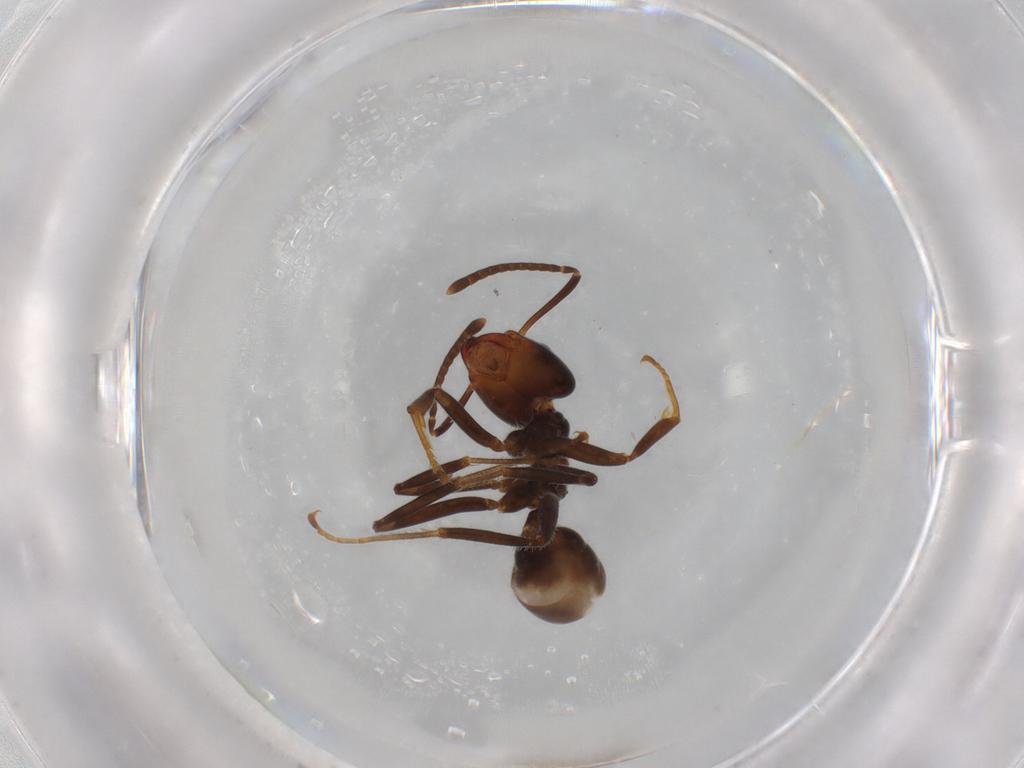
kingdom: Animalia
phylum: Arthropoda
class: Insecta
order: Hymenoptera
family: Formicidae
